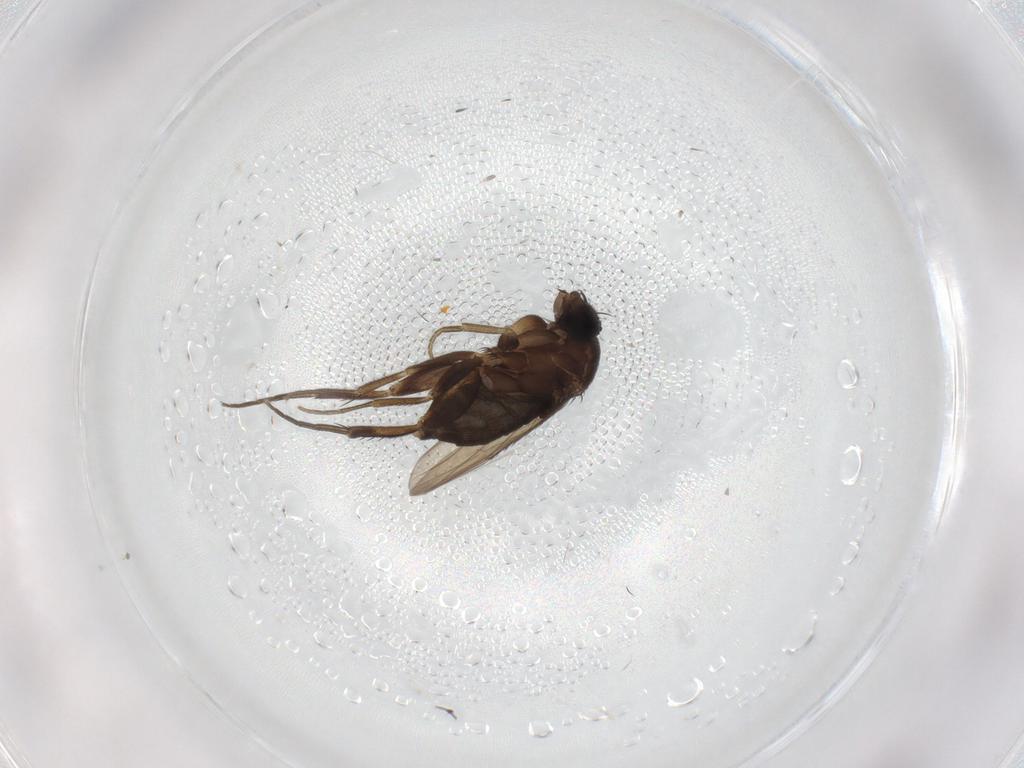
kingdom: Animalia
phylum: Arthropoda
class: Insecta
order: Diptera
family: Phoridae
